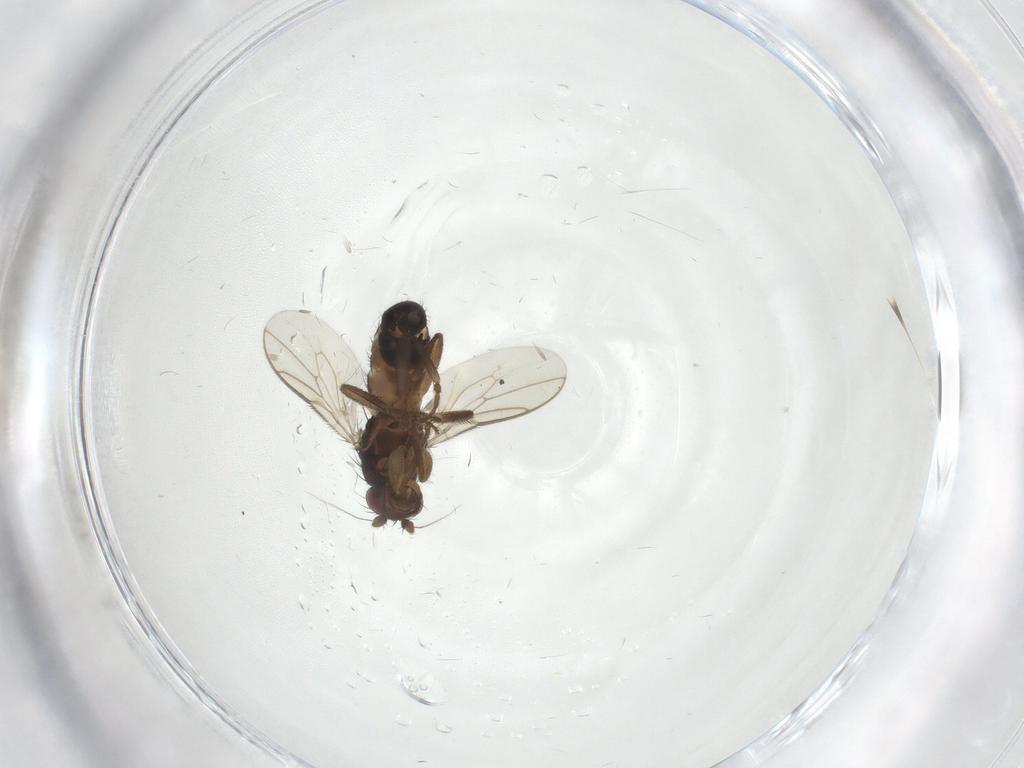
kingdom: Animalia
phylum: Arthropoda
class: Insecta
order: Diptera
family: Sphaeroceridae
